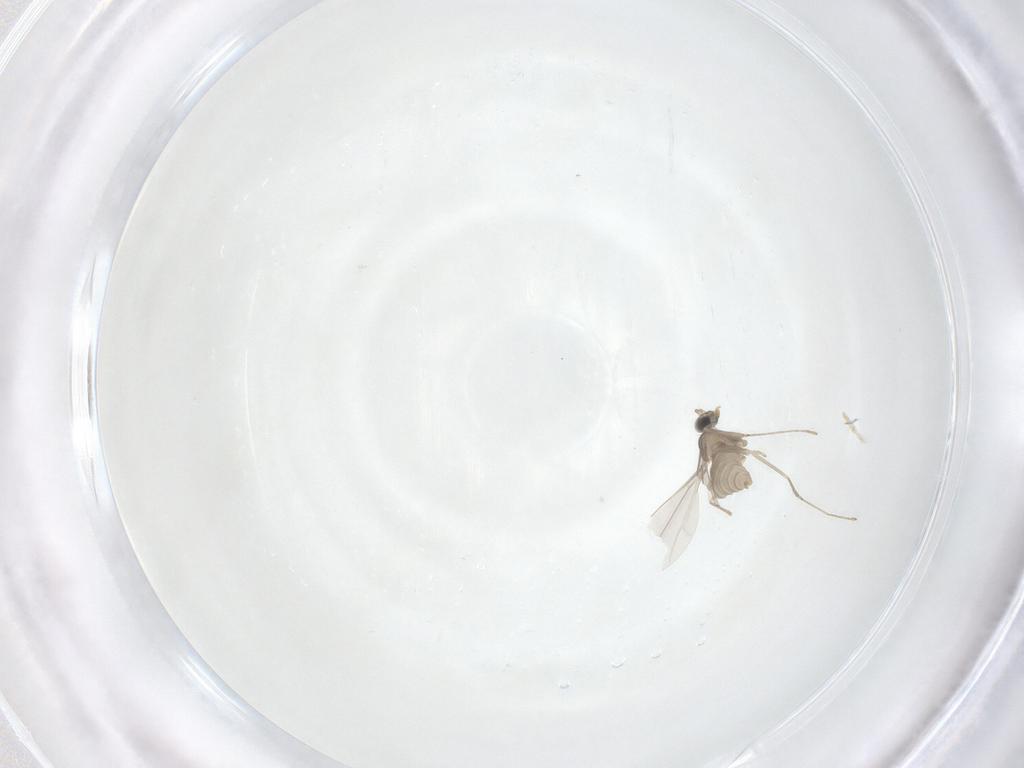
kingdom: Animalia
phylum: Arthropoda
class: Insecta
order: Diptera
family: Cecidomyiidae
